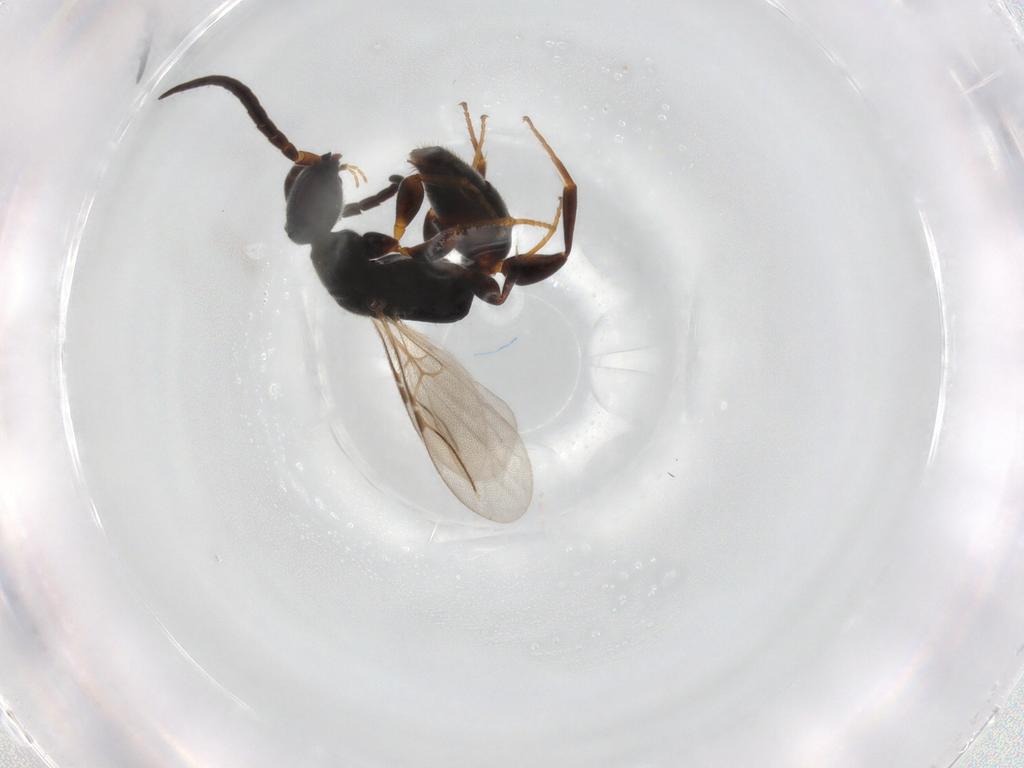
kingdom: Animalia
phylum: Arthropoda
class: Insecta
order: Hymenoptera
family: Bethylidae
